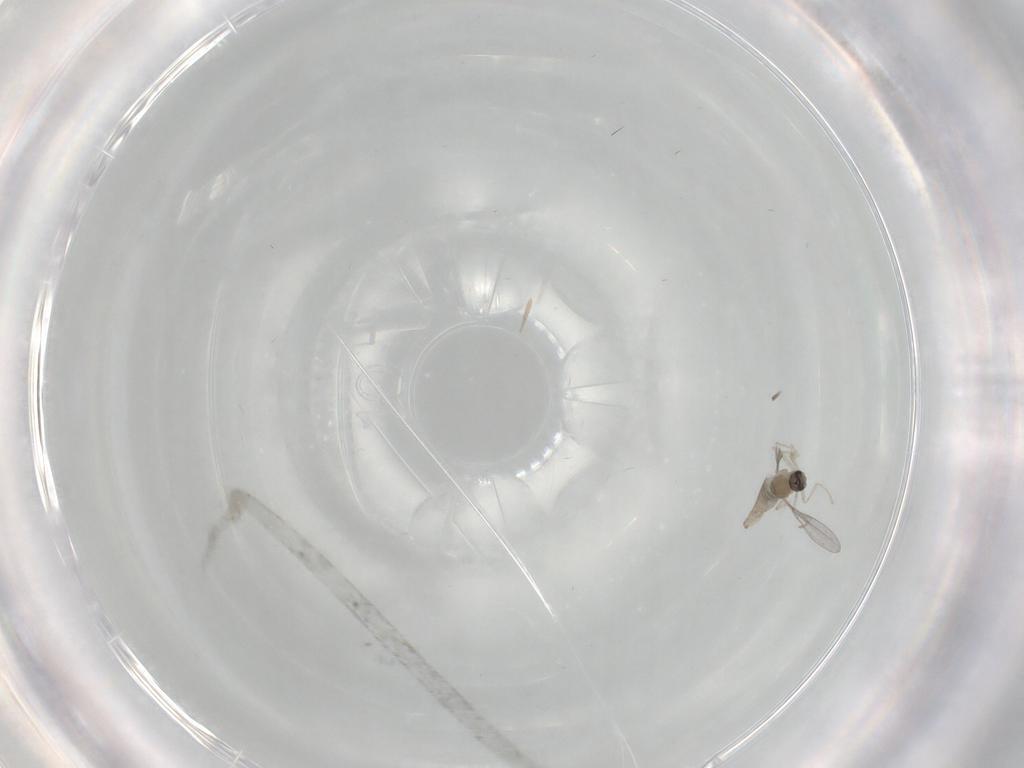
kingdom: Animalia
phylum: Arthropoda
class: Insecta
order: Diptera
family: Cecidomyiidae
